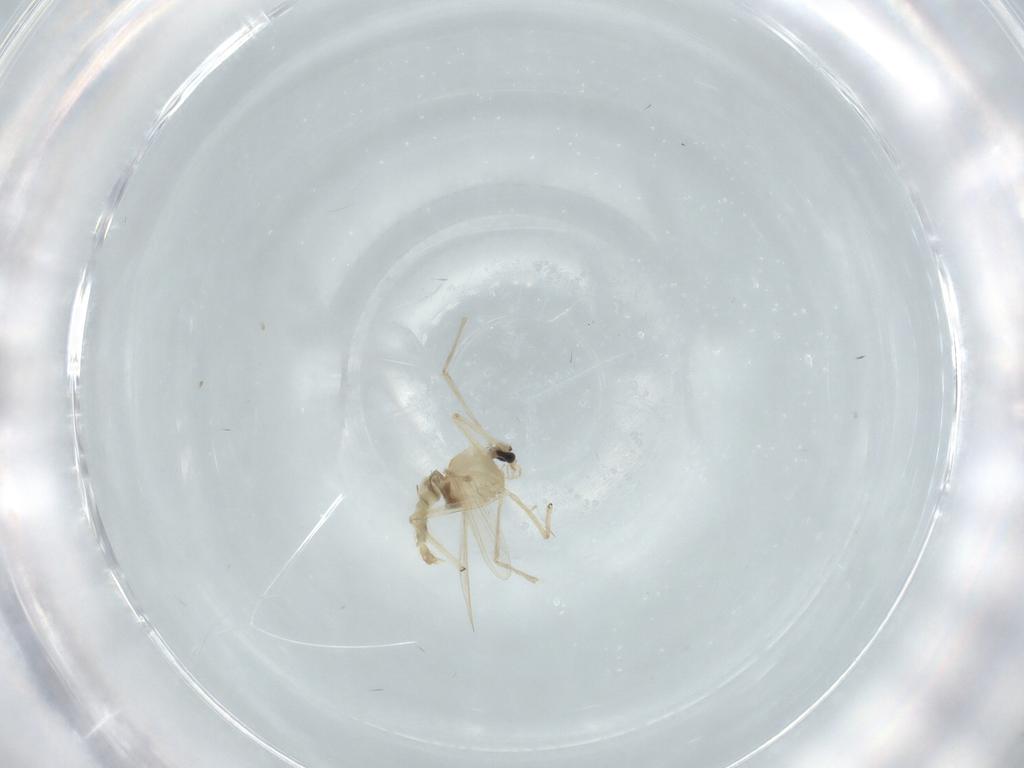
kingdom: Animalia
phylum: Arthropoda
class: Insecta
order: Diptera
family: Chironomidae
